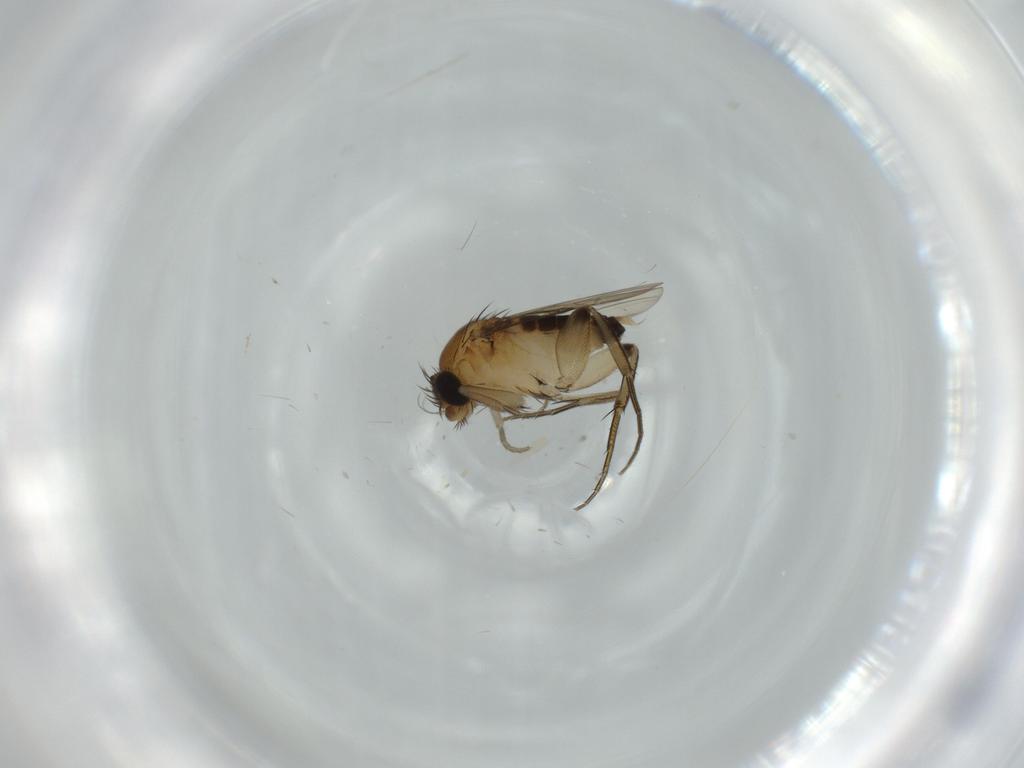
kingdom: Animalia
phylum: Arthropoda
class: Insecta
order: Diptera
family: Phoridae
